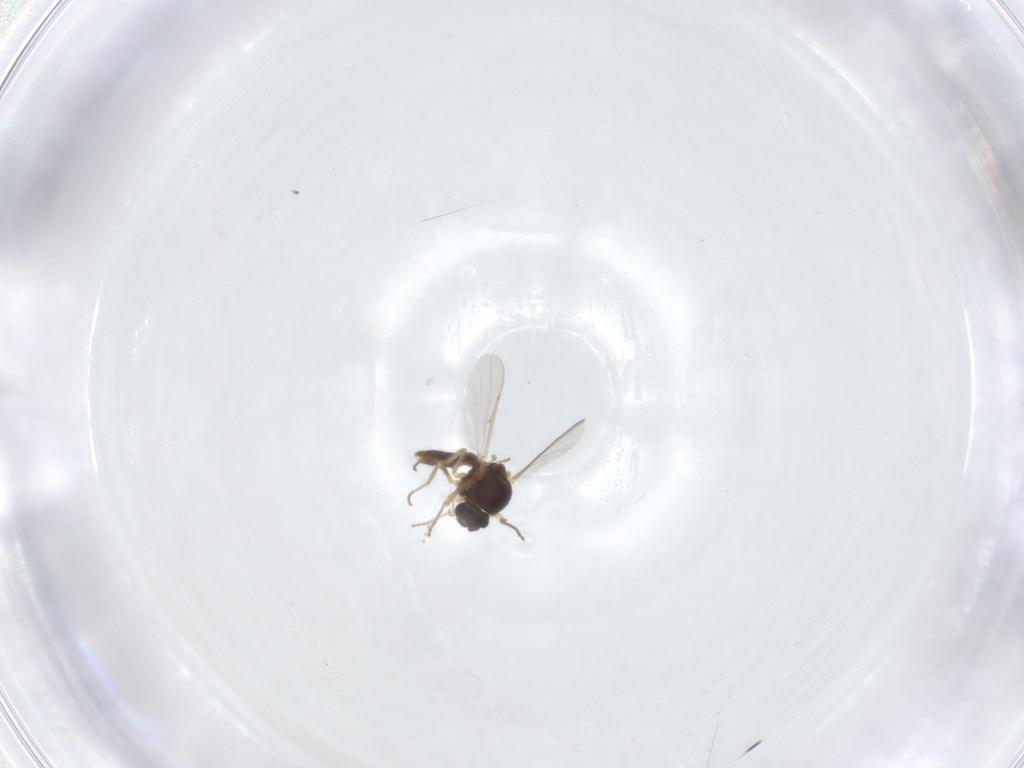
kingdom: Animalia
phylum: Arthropoda
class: Insecta
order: Diptera
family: Ceratopogonidae
